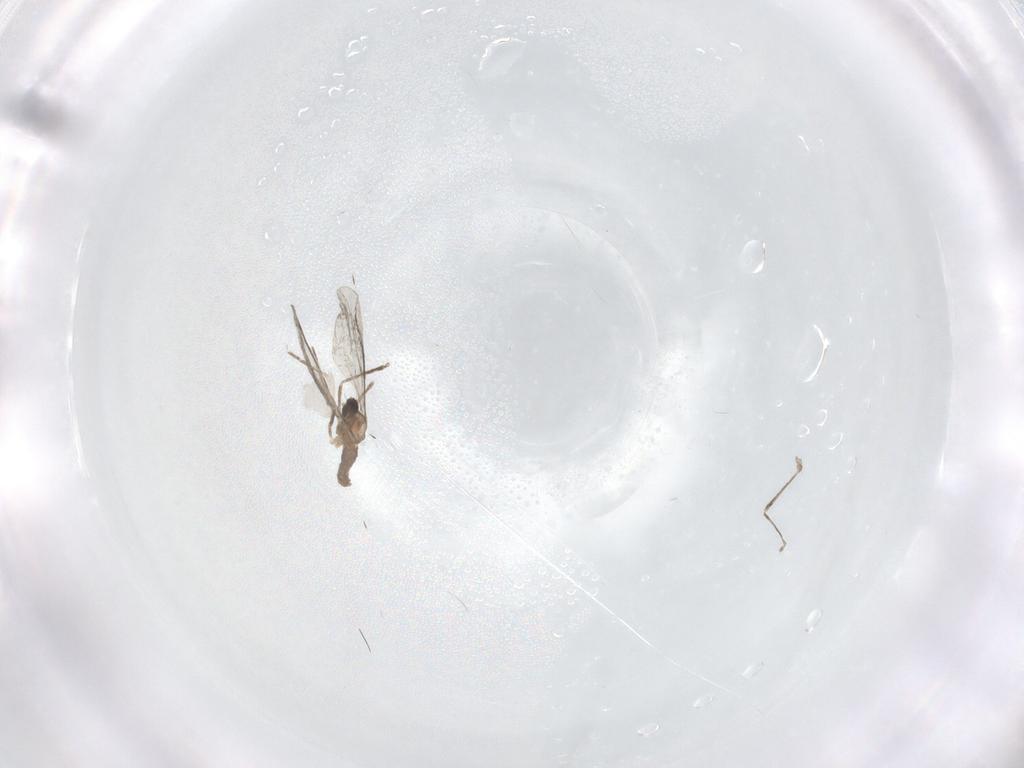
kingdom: Animalia
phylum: Arthropoda
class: Insecta
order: Diptera
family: Cecidomyiidae
